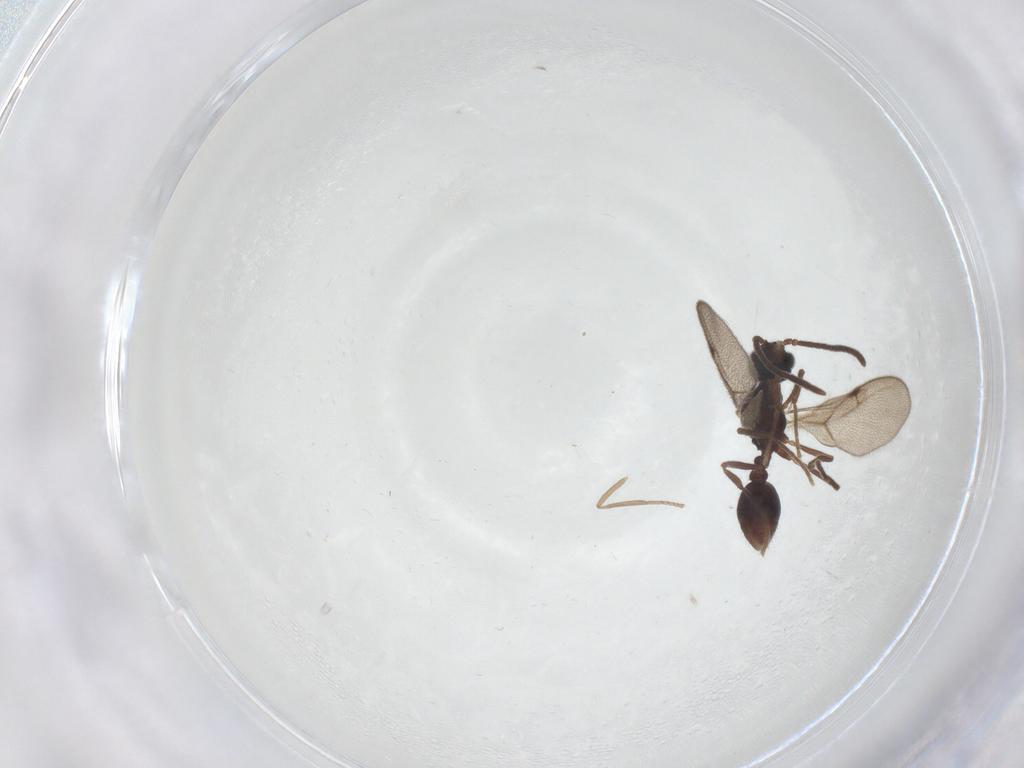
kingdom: Animalia
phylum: Arthropoda
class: Insecta
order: Hymenoptera
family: Formicidae
